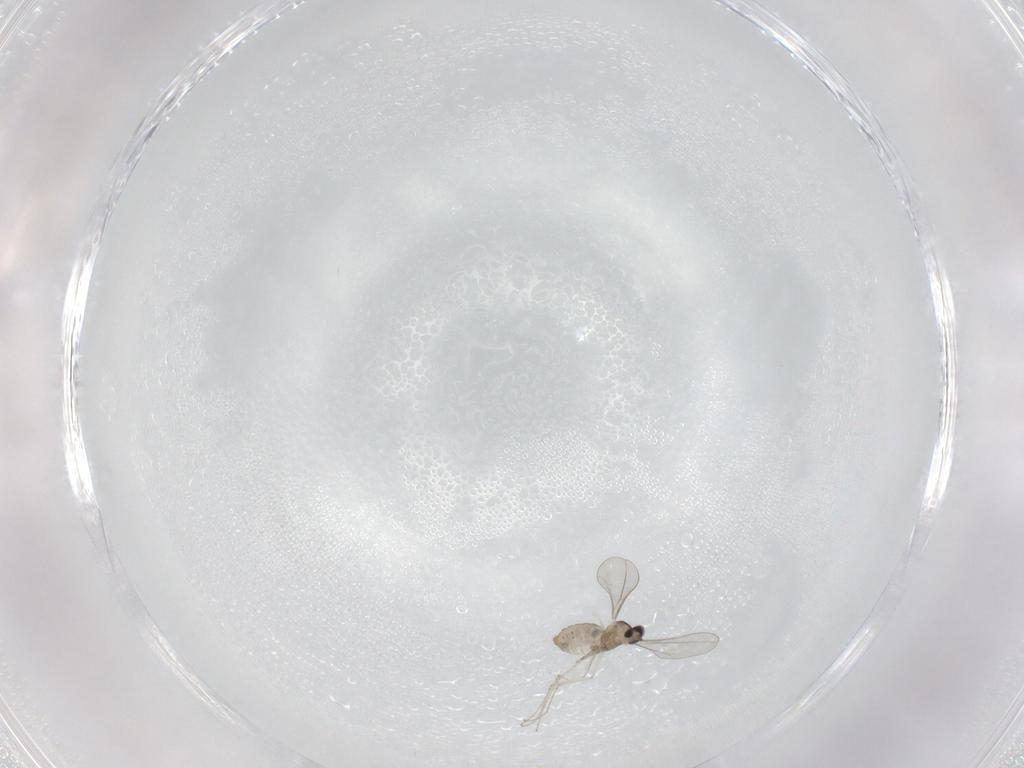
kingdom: Animalia
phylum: Arthropoda
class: Insecta
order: Diptera
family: Cecidomyiidae
